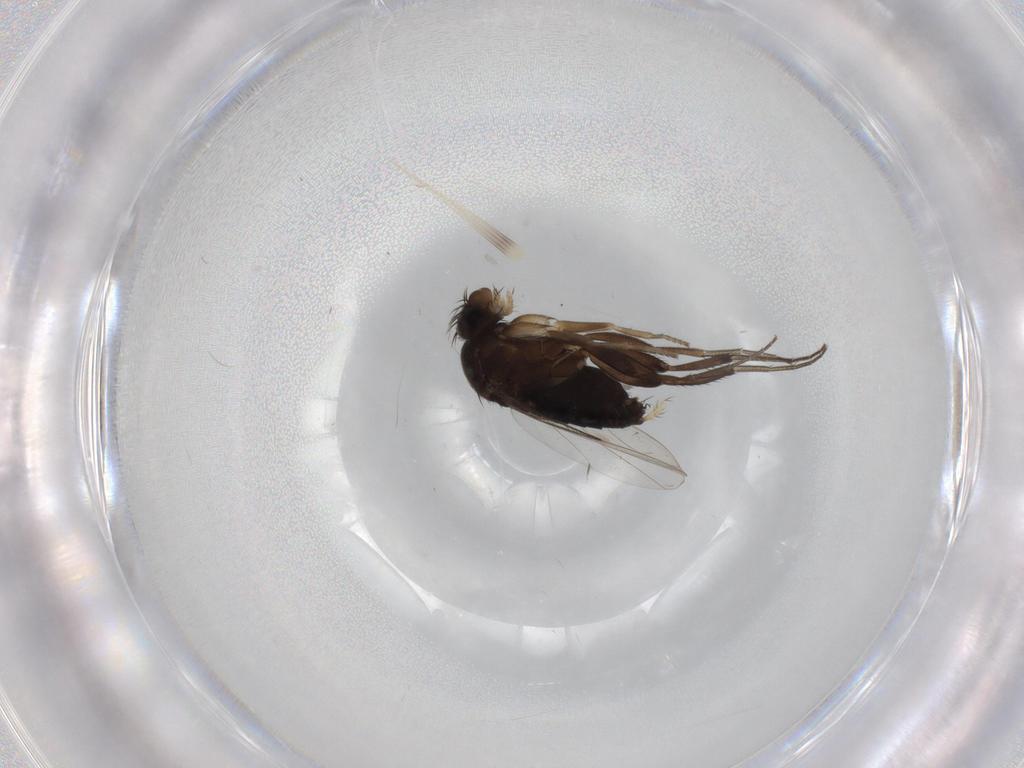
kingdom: Animalia
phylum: Arthropoda
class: Insecta
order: Diptera
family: Phoridae
